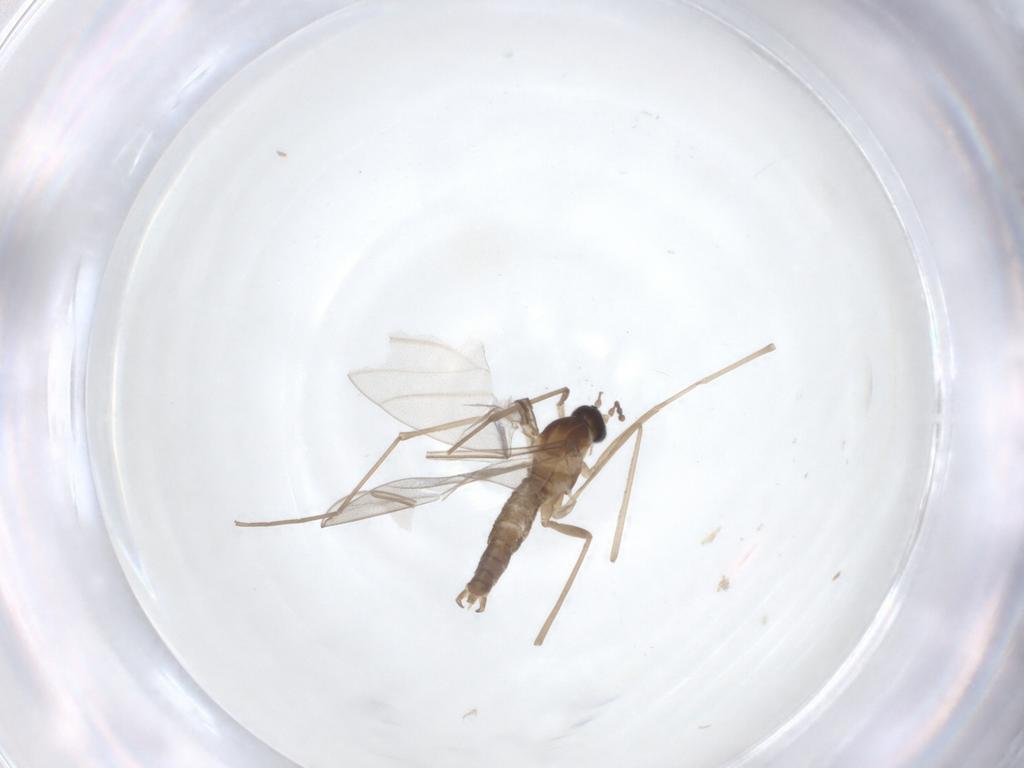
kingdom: Animalia
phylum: Arthropoda
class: Insecta
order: Diptera
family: Cecidomyiidae
